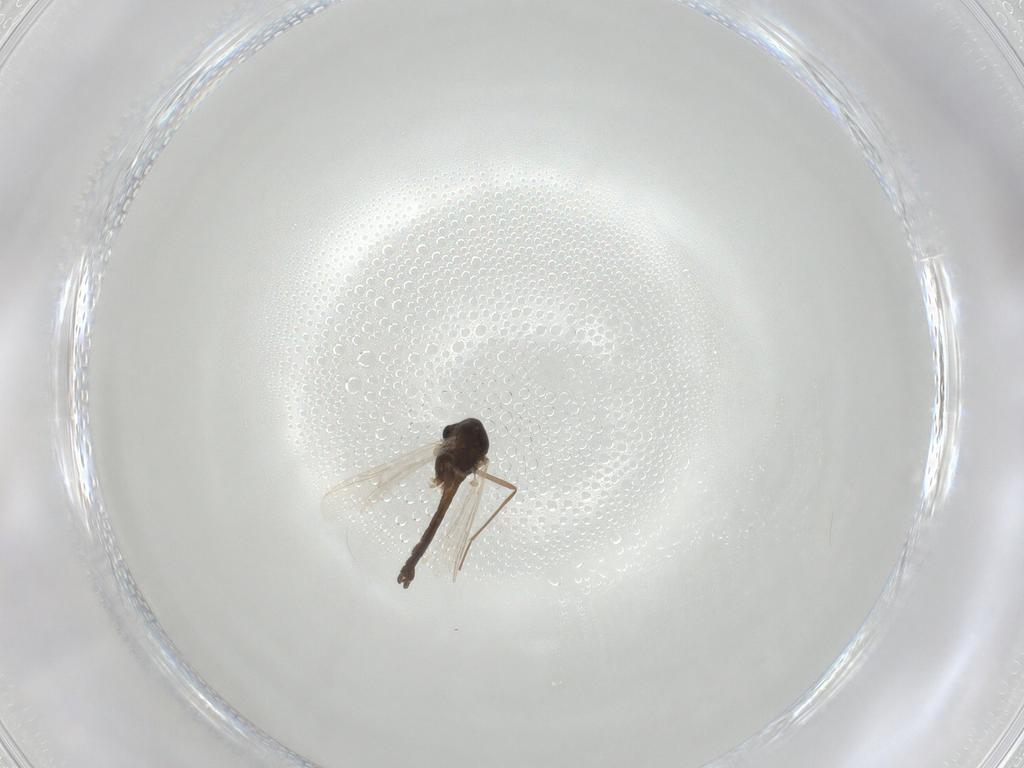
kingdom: Animalia
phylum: Arthropoda
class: Insecta
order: Diptera
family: Chironomidae
